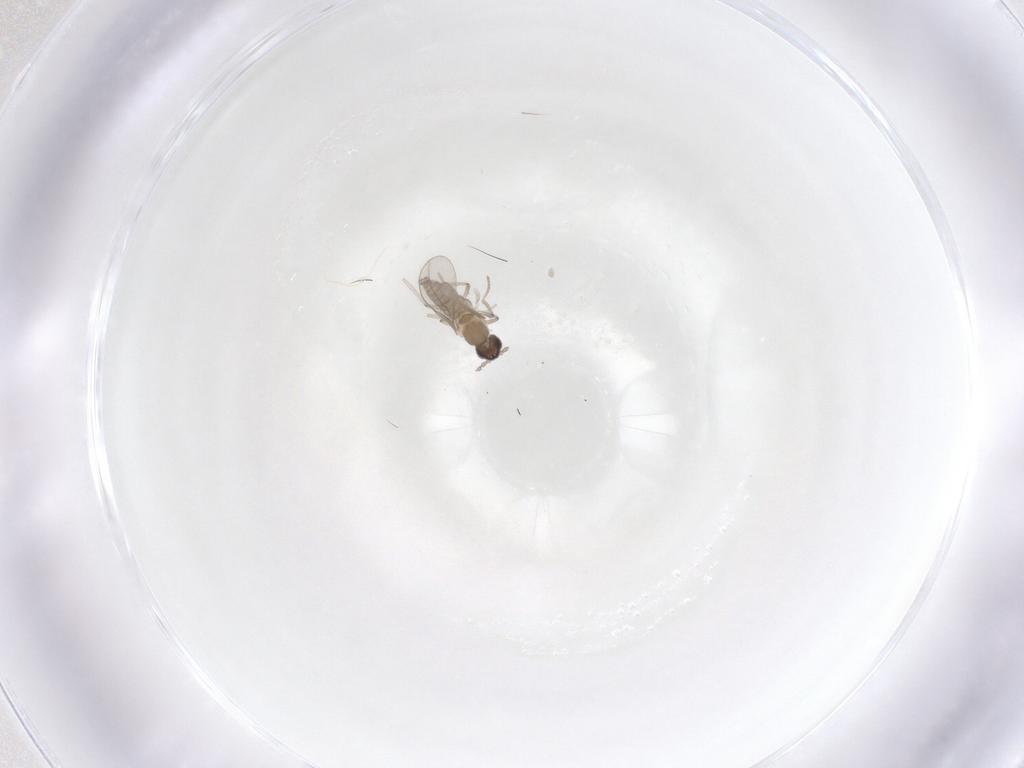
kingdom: Animalia
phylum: Arthropoda
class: Insecta
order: Diptera
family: Cecidomyiidae
